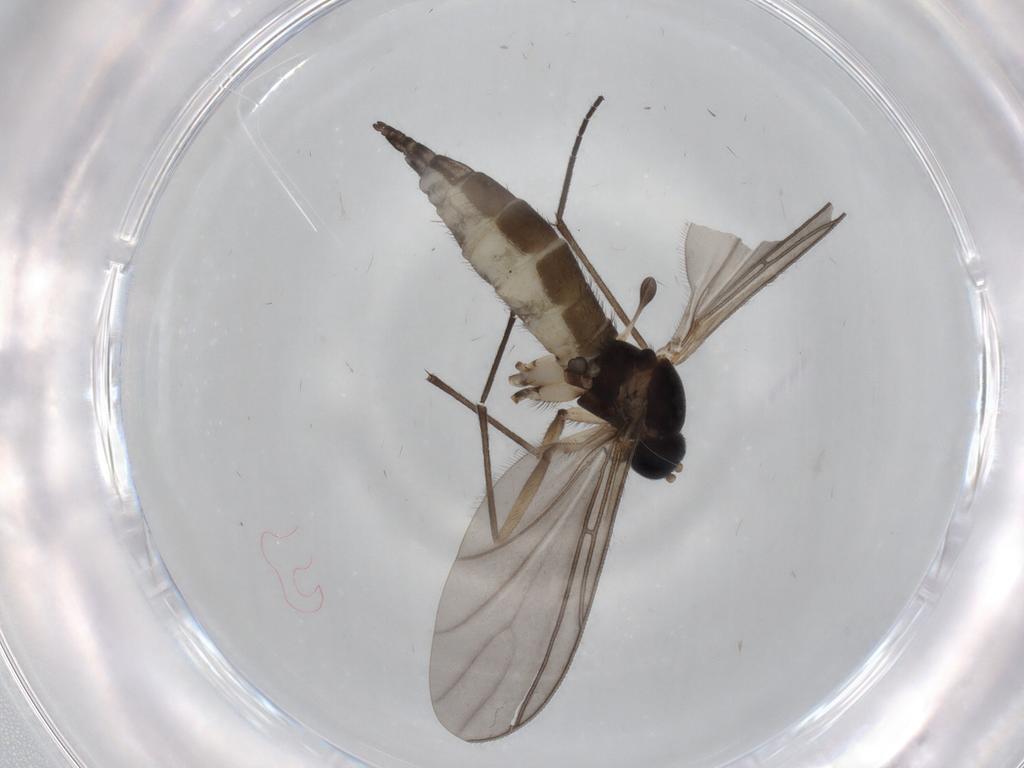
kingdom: Animalia
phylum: Arthropoda
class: Insecta
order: Diptera
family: Sciaridae
